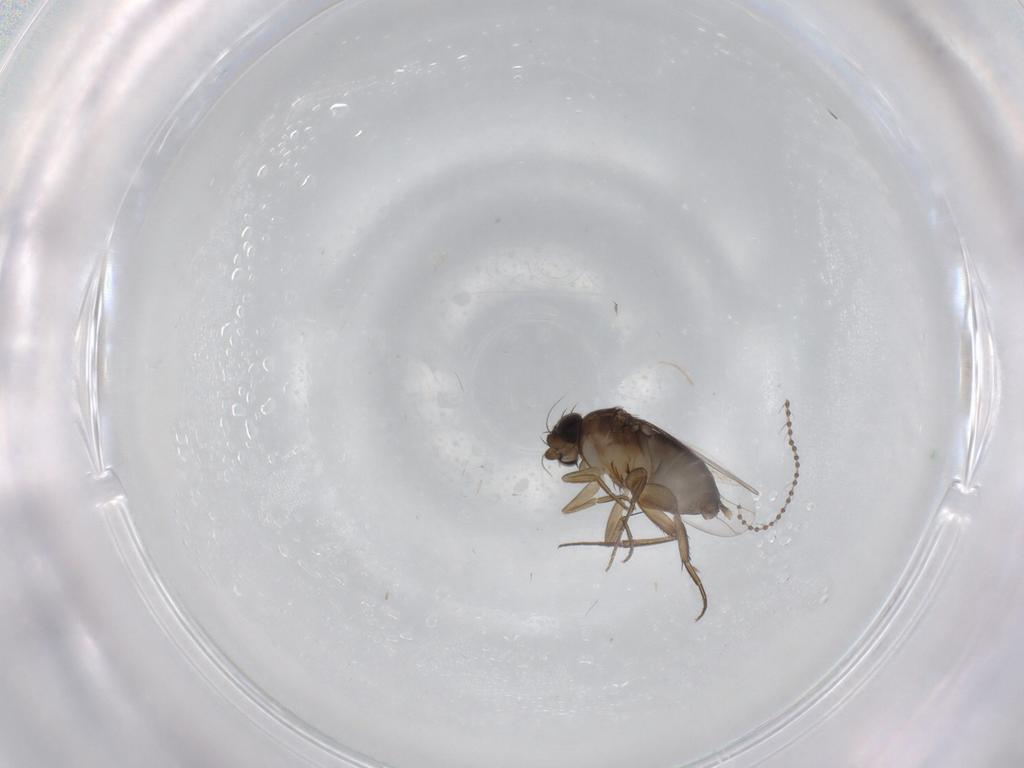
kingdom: Animalia
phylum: Arthropoda
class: Insecta
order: Diptera
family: Phoridae
